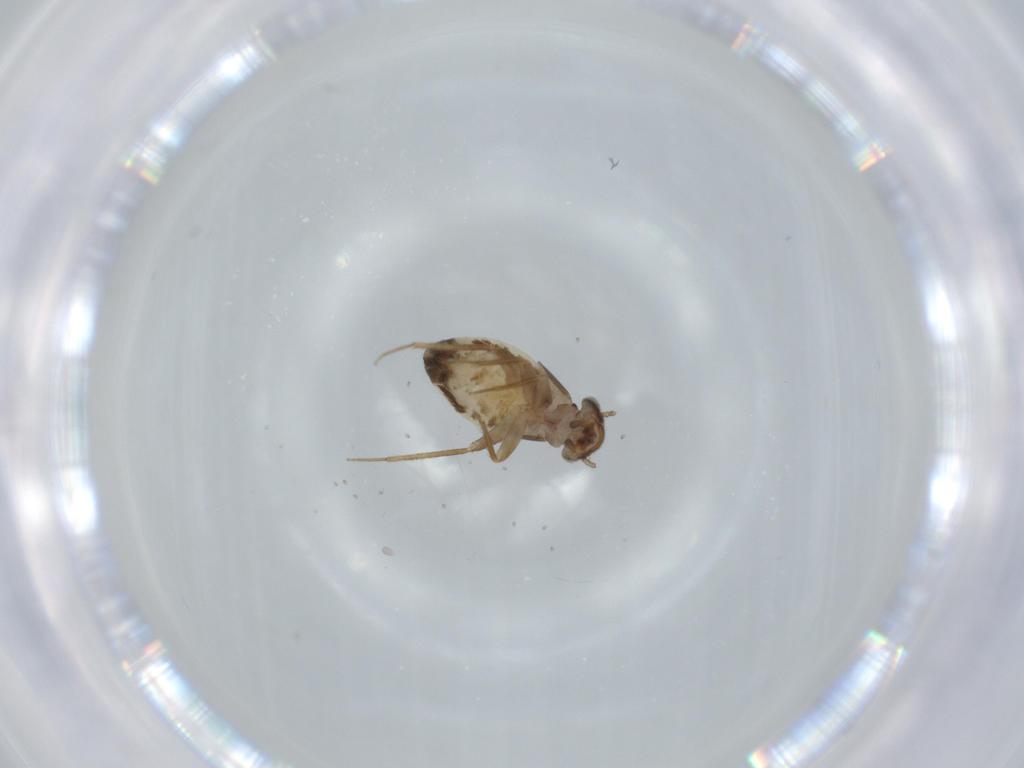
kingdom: Animalia
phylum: Arthropoda
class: Insecta
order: Psocodea
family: Lepidopsocidae
